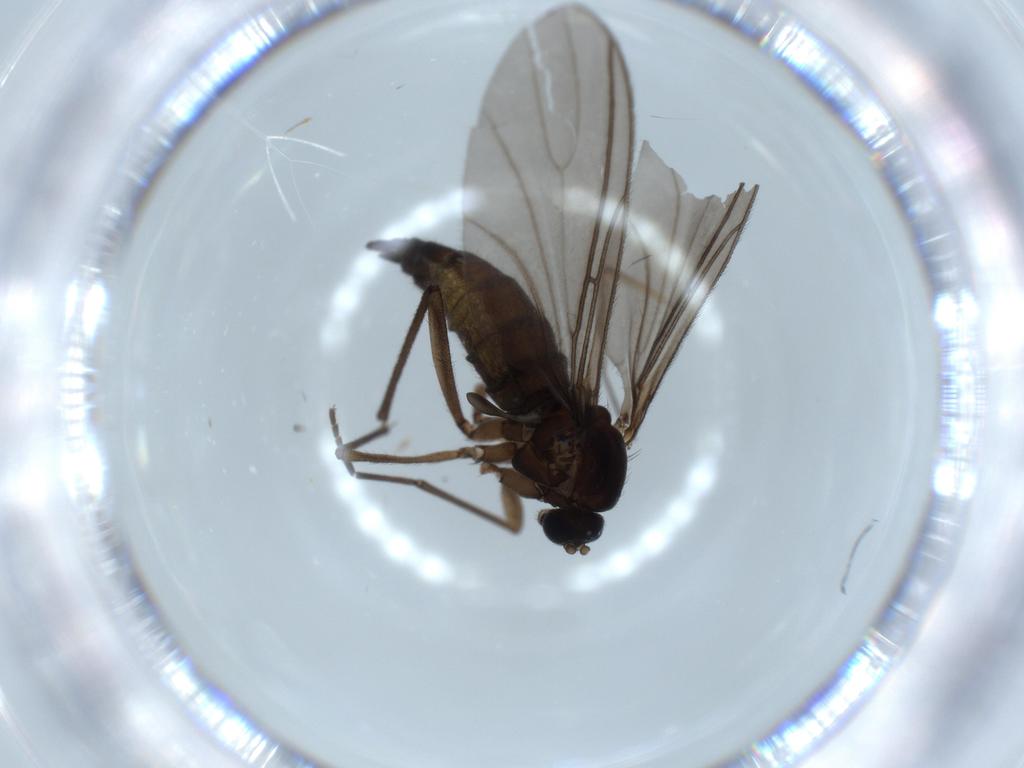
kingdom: Animalia
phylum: Arthropoda
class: Insecta
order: Diptera
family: Sciaridae
